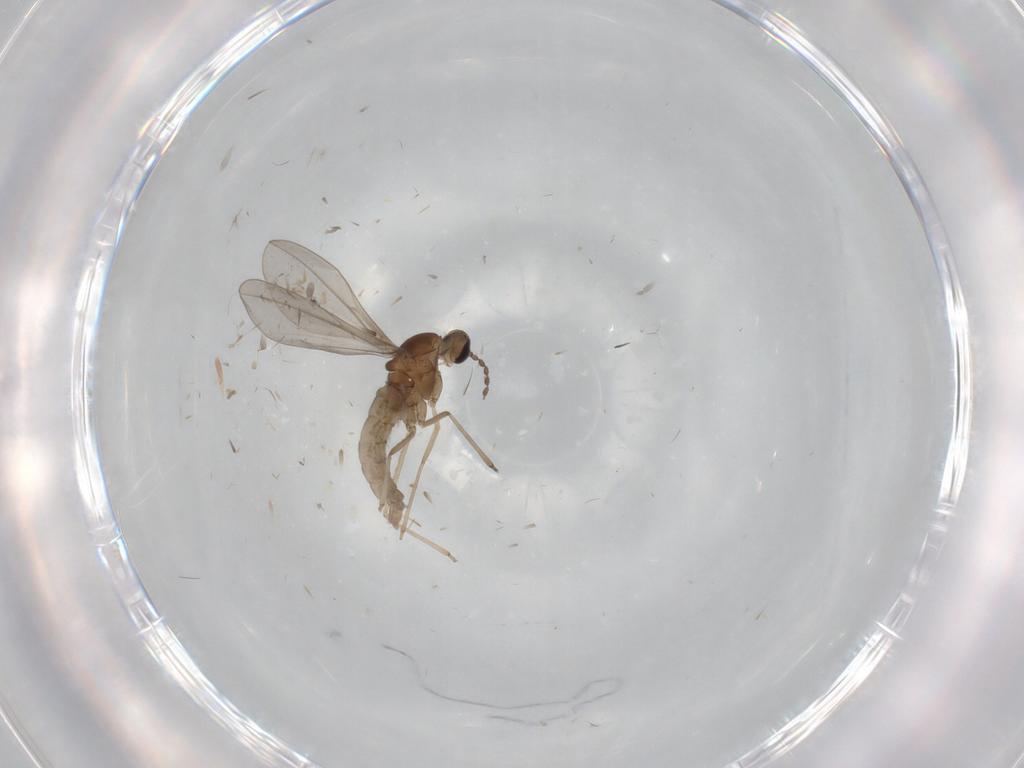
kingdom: Animalia
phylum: Arthropoda
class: Insecta
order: Diptera
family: Cecidomyiidae
